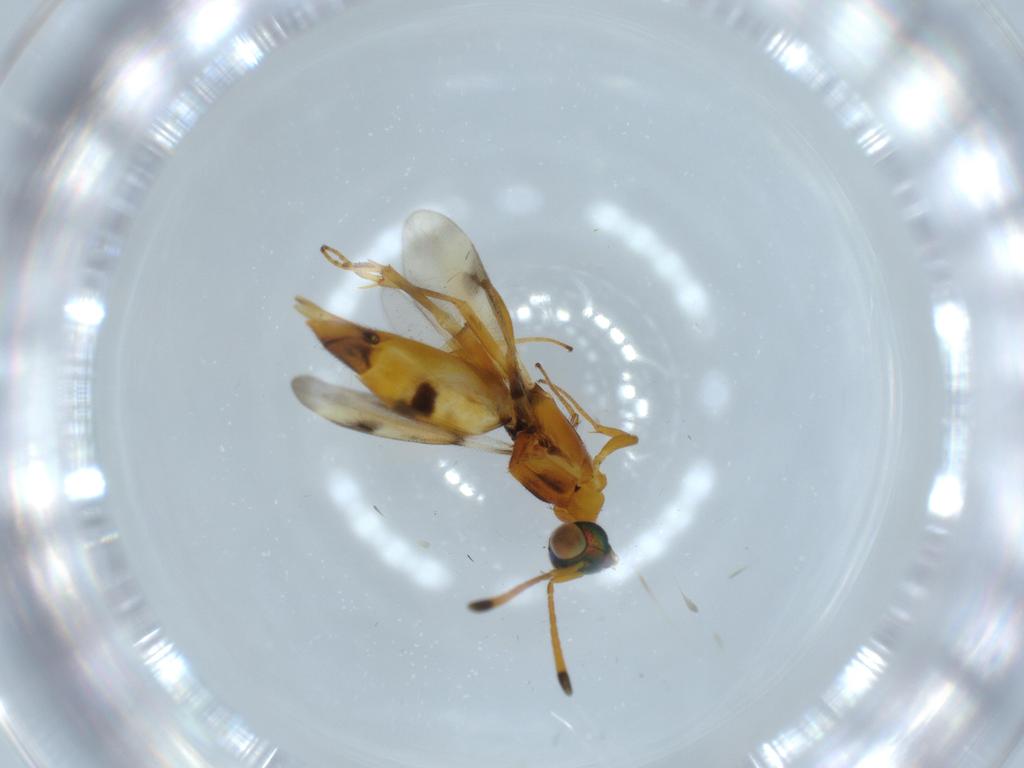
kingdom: Animalia
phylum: Arthropoda
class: Insecta
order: Hymenoptera
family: Eupelmidae
